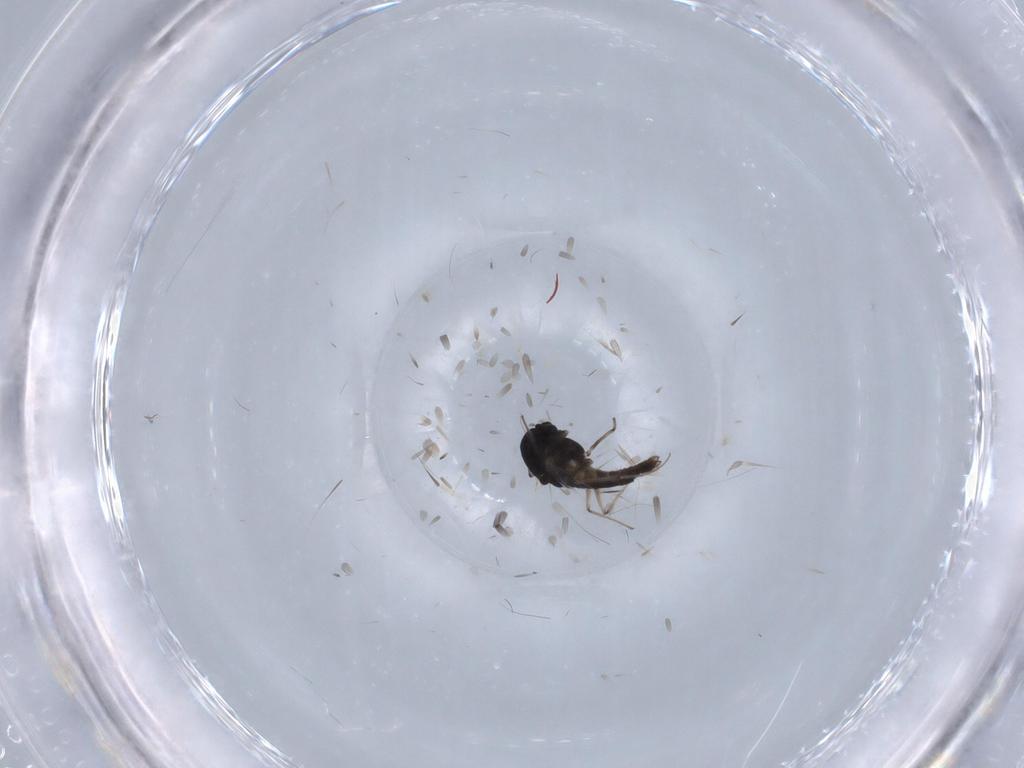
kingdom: Animalia
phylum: Arthropoda
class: Insecta
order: Diptera
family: Chironomidae
